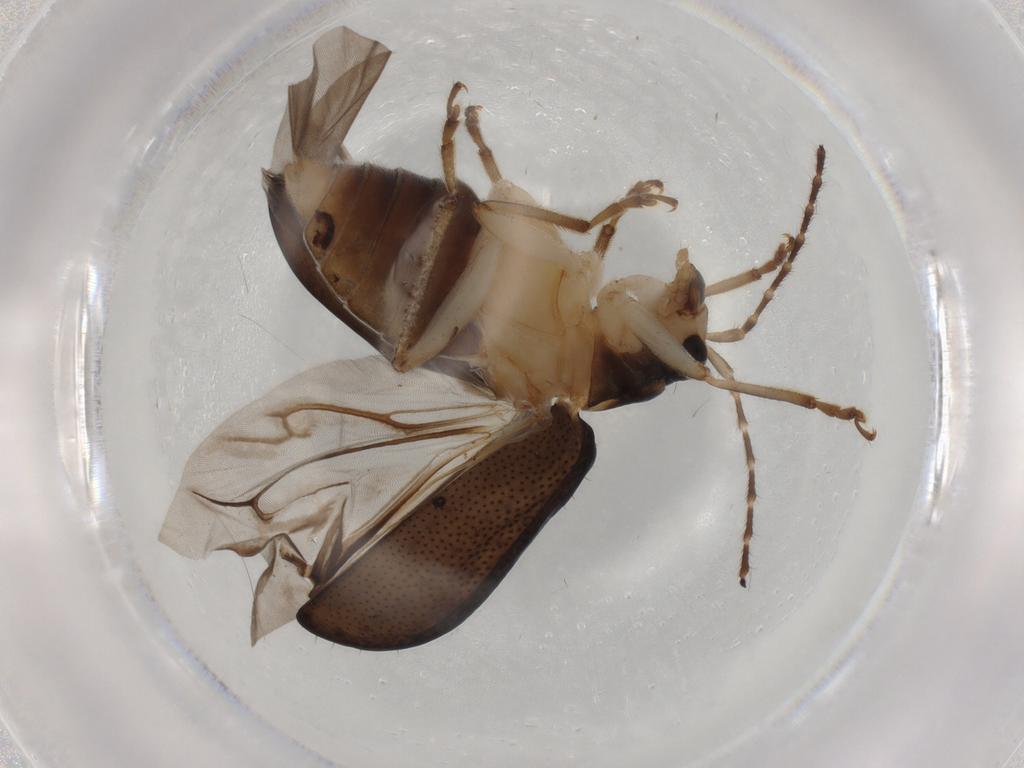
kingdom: Animalia
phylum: Arthropoda
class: Insecta
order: Coleoptera
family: Chrysomelidae
